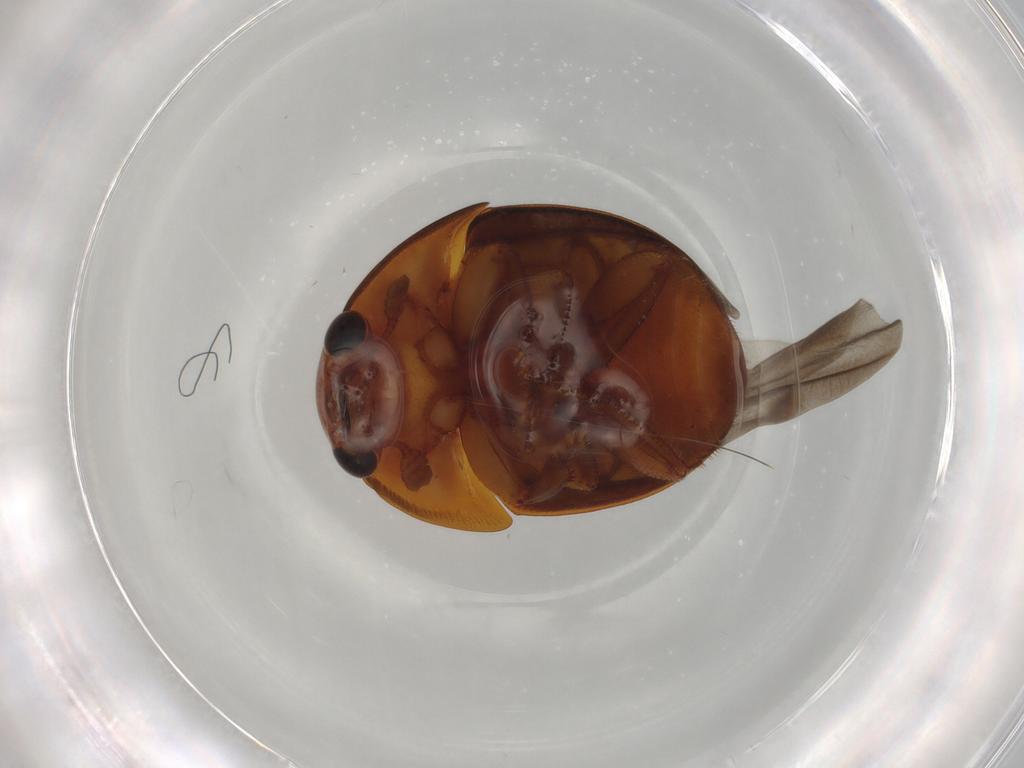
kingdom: Animalia
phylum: Arthropoda
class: Insecta
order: Coleoptera
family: Nitidulidae
